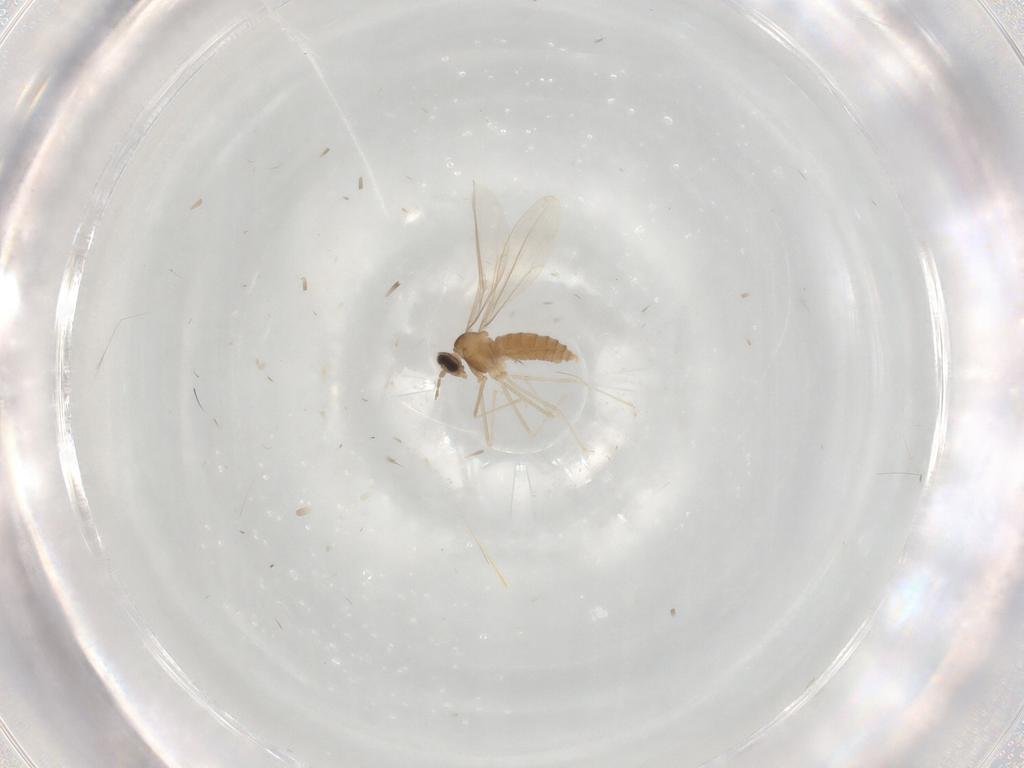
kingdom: Animalia
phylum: Arthropoda
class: Insecta
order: Diptera
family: Cecidomyiidae
